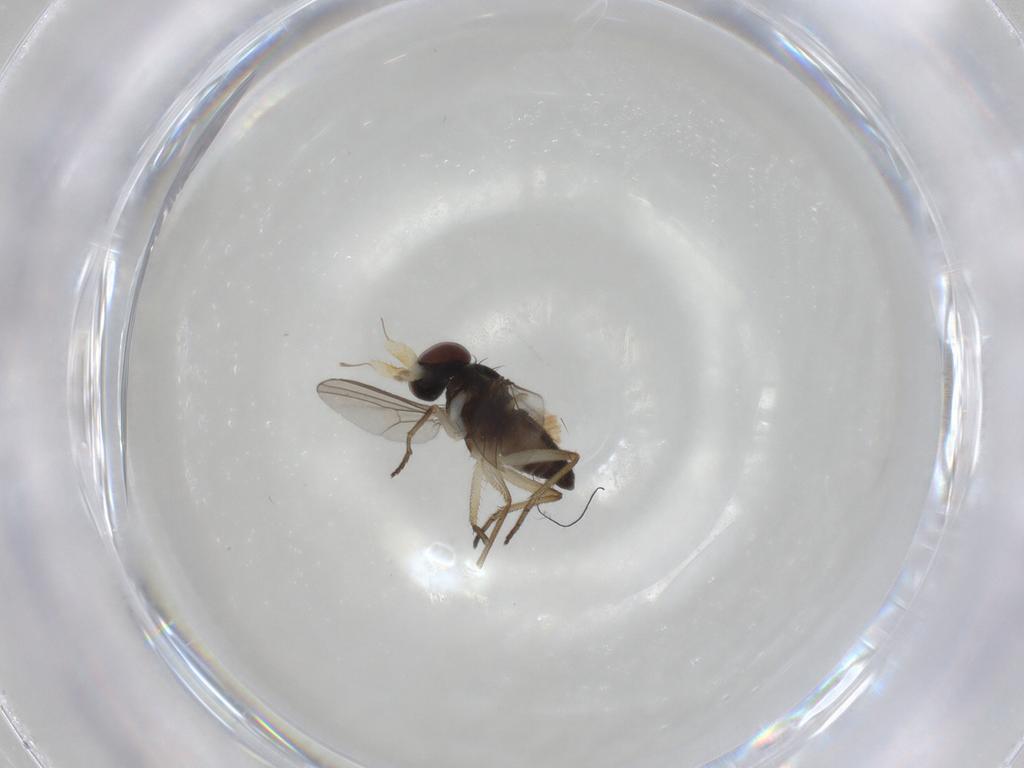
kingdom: Animalia
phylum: Arthropoda
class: Insecta
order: Diptera
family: Dolichopodidae
